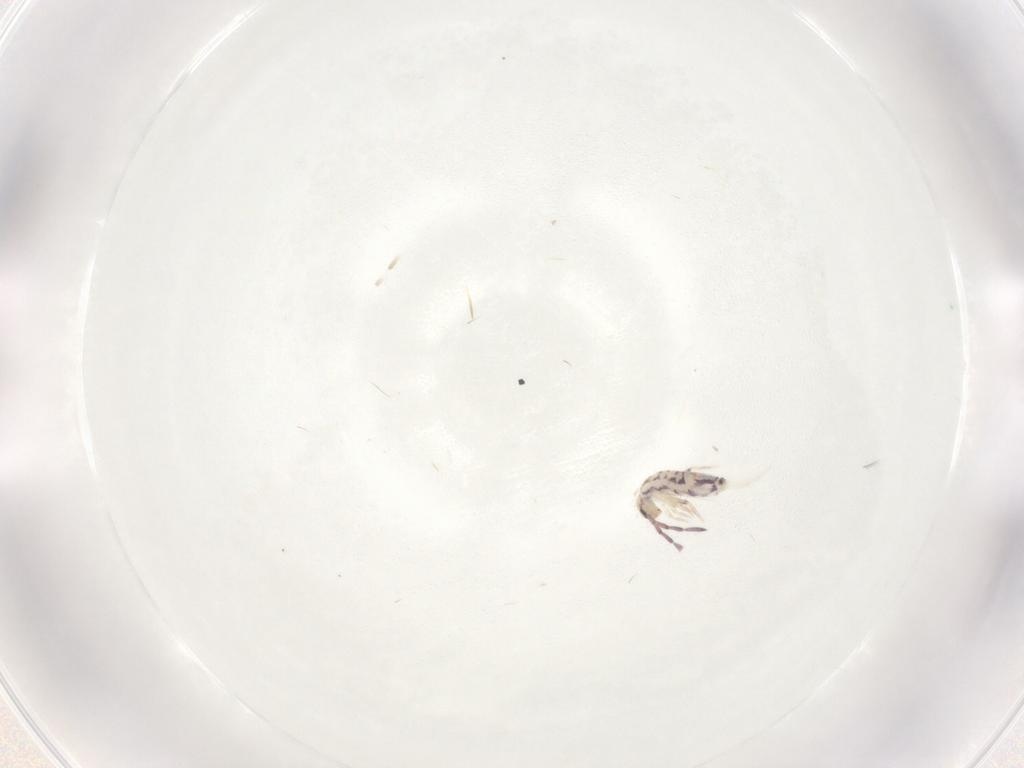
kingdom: Animalia
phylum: Arthropoda
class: Collembola
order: Entomobryomorpha
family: Entomobryidae
